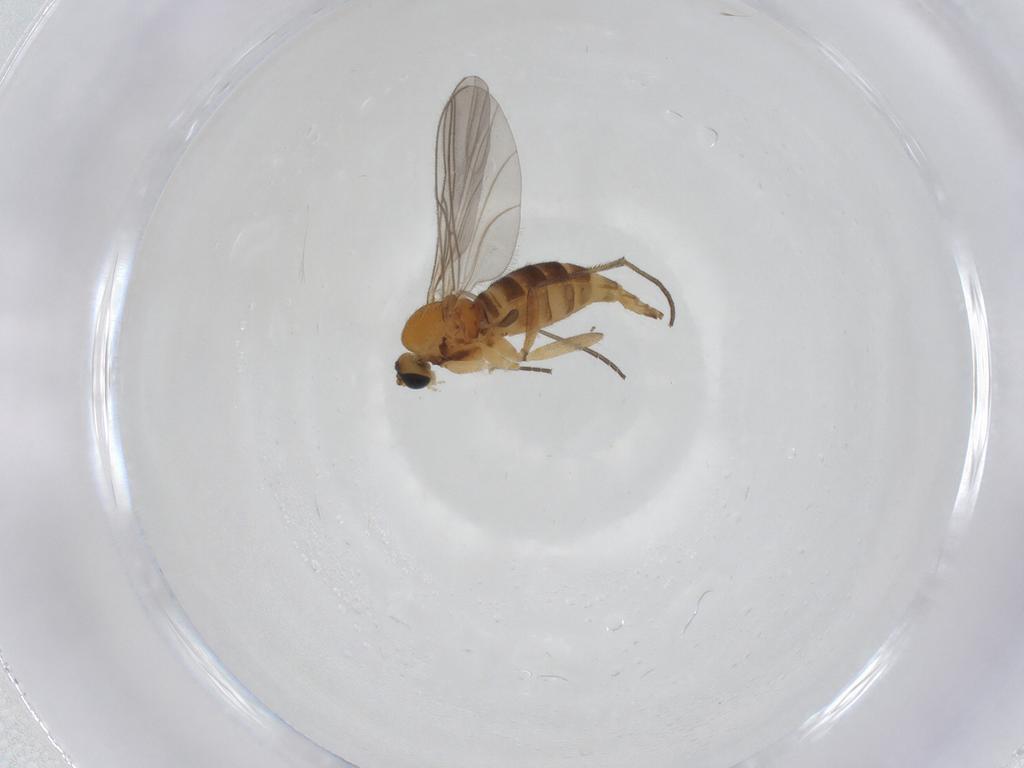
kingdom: Animalia
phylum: Arthropoda
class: Insecta
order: Diptera
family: Sciaridae
